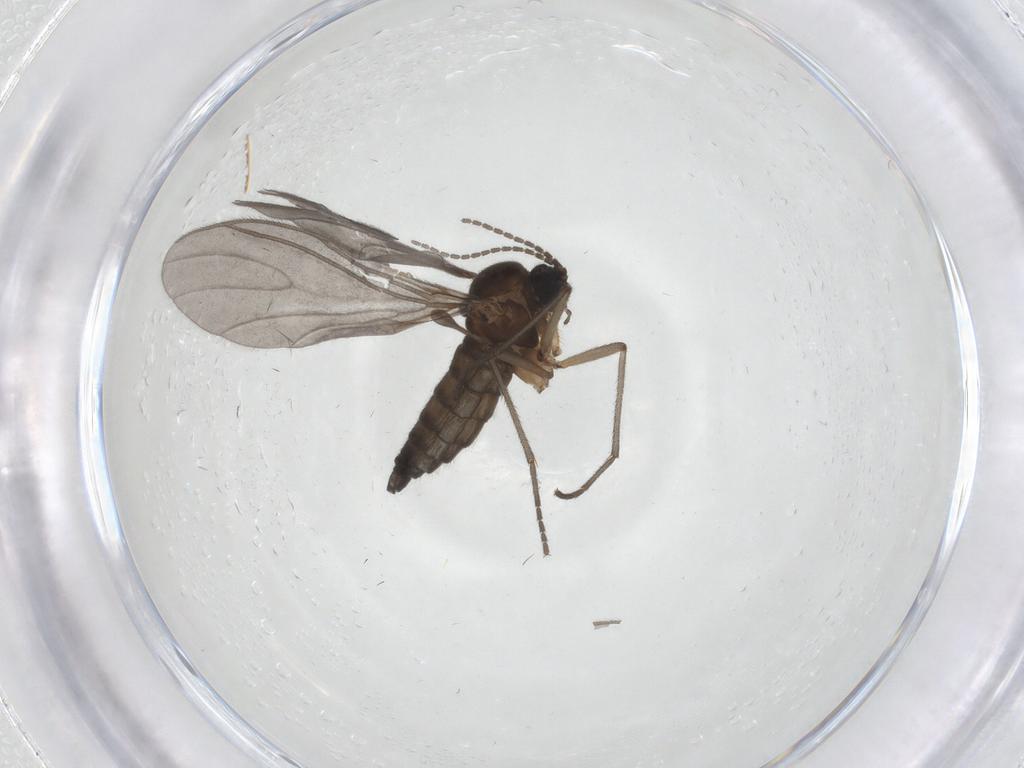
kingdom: Animalia
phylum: Arthropoda
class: Insecta
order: Diptera
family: Sciaridae
